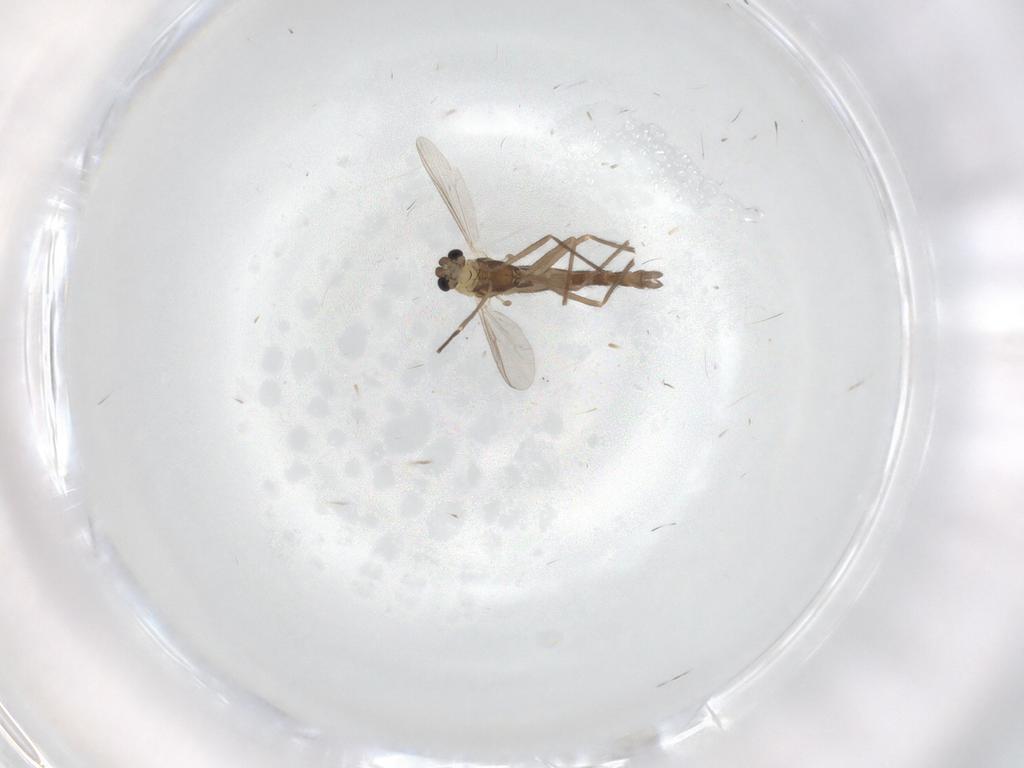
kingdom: Animalia
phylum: Arthropoda
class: Insecta
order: Diptera
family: Chironomidae
